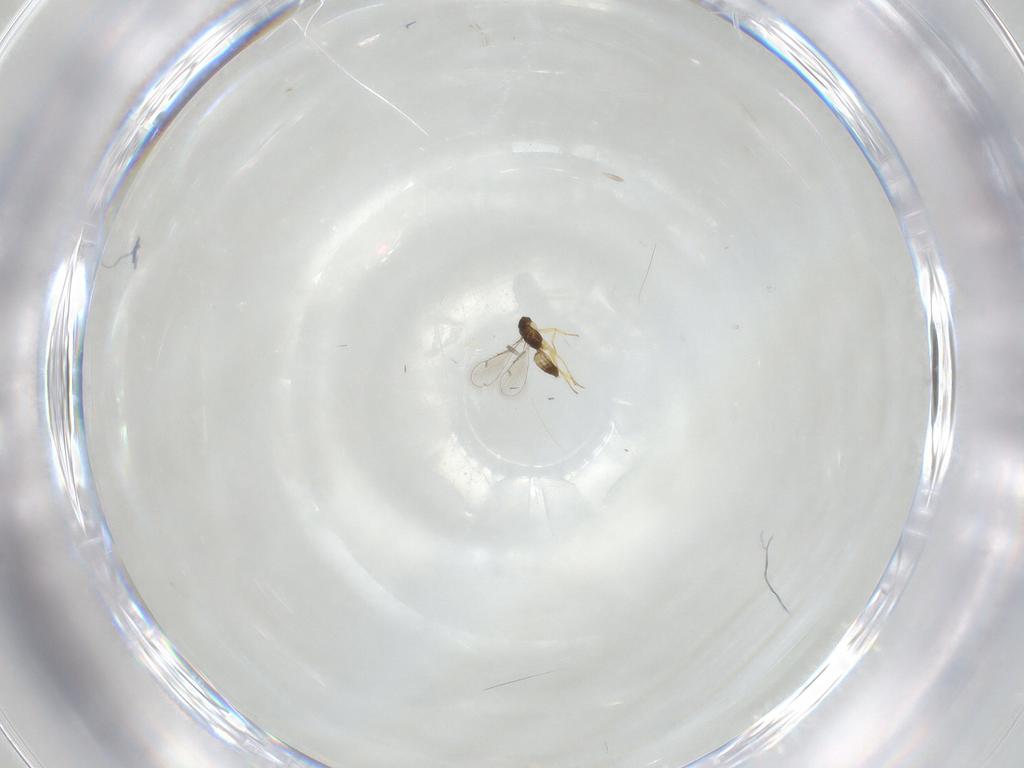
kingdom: Animalia
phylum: Arthropoda
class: Insecta
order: Hymenoptera
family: Eulophidae
